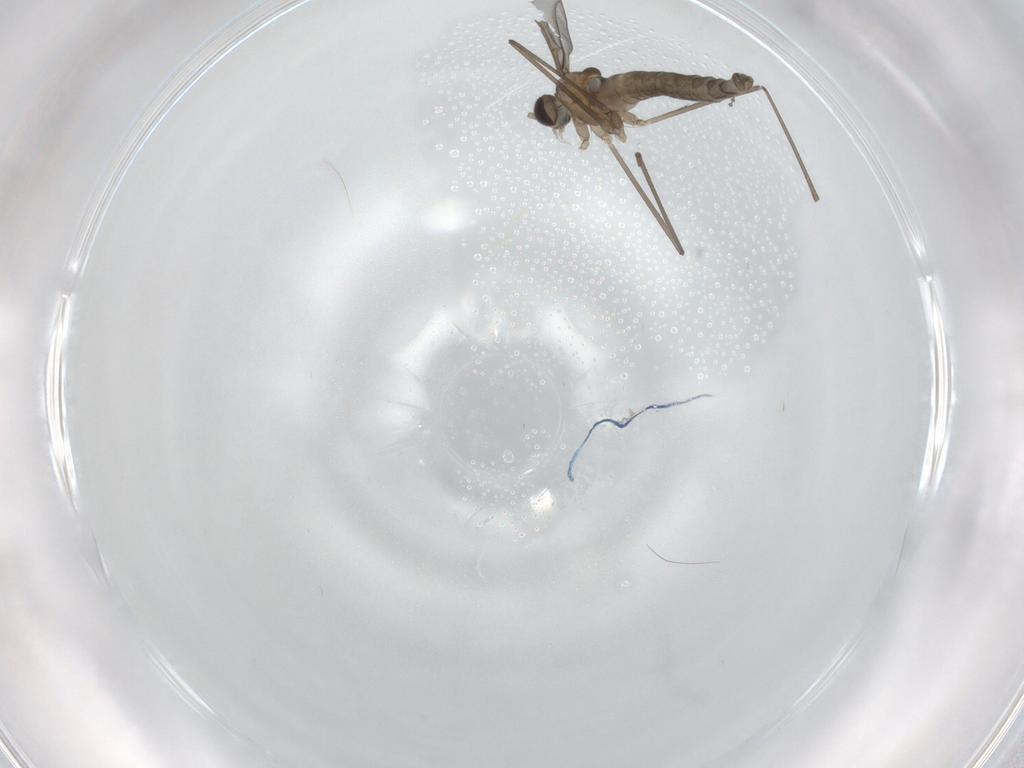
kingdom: Animalia
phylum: Arthropoda
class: Insecta
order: Diptera
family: Cecidomyiidae
